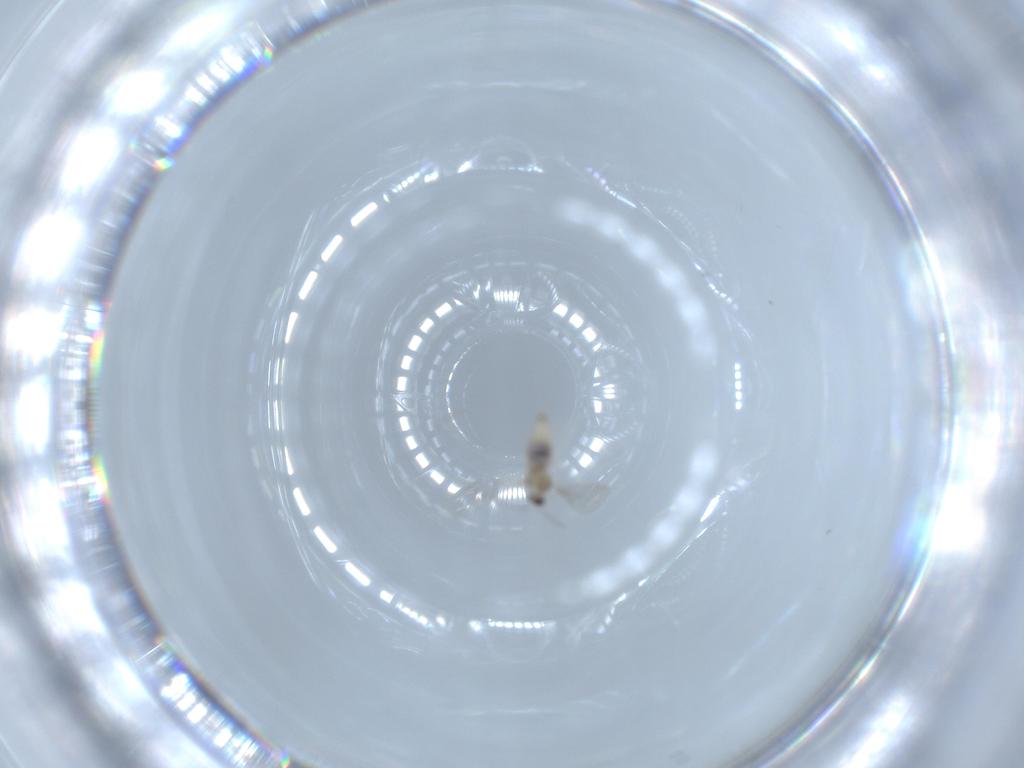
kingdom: Animalia
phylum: Arthropoda
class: Insecta
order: Diptera
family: Cecidomyiidae
